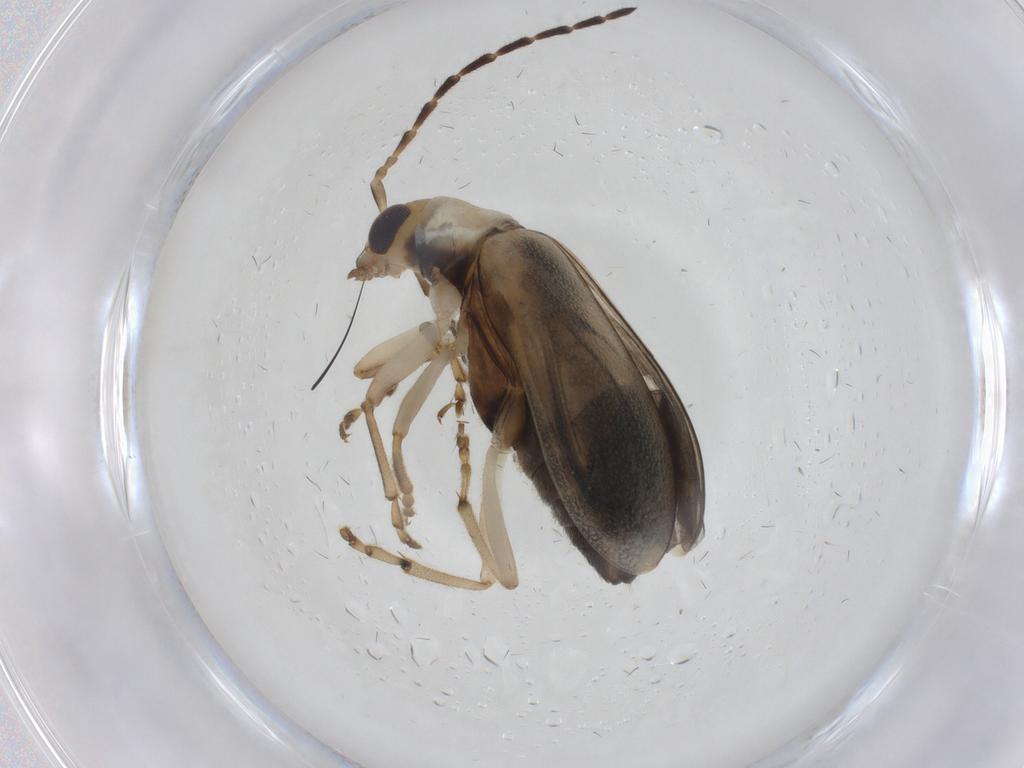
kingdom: Animalia
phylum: Arthropoda
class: Insecta
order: Coleoptera
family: Chrysomelidae
